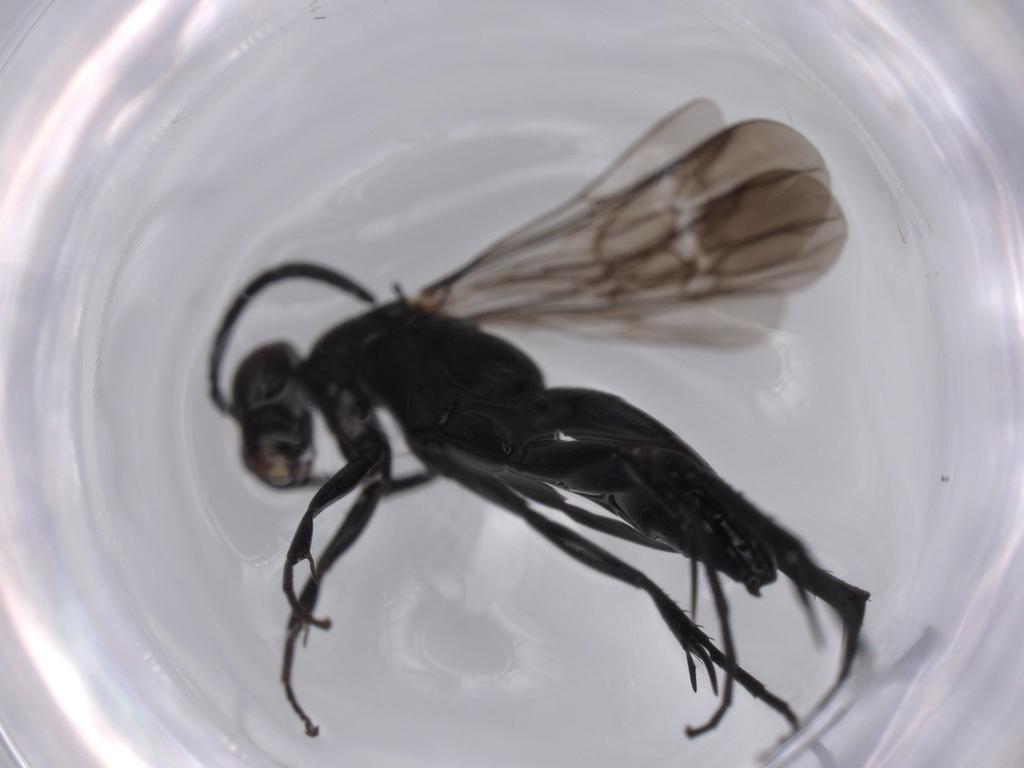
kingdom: Animalia
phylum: Arthropoda
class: Insecta
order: Hymenoptera
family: Pompilidae
